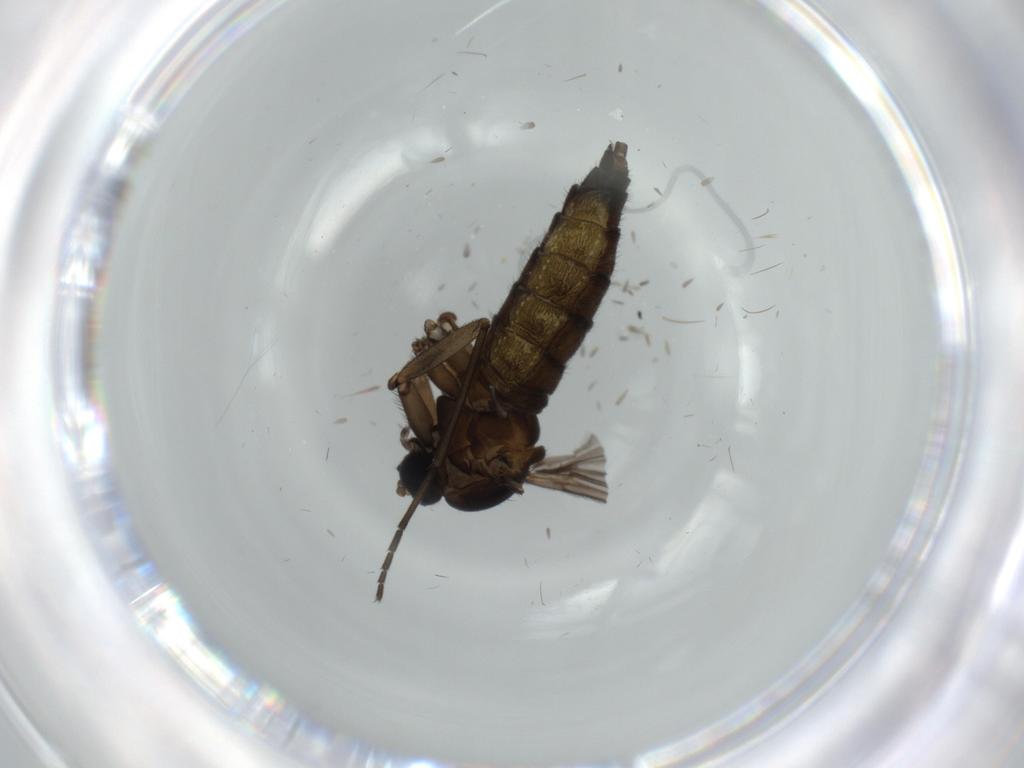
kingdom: Animalia
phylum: Arthropoda
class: Insecta
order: Diptera
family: Sciaridae
